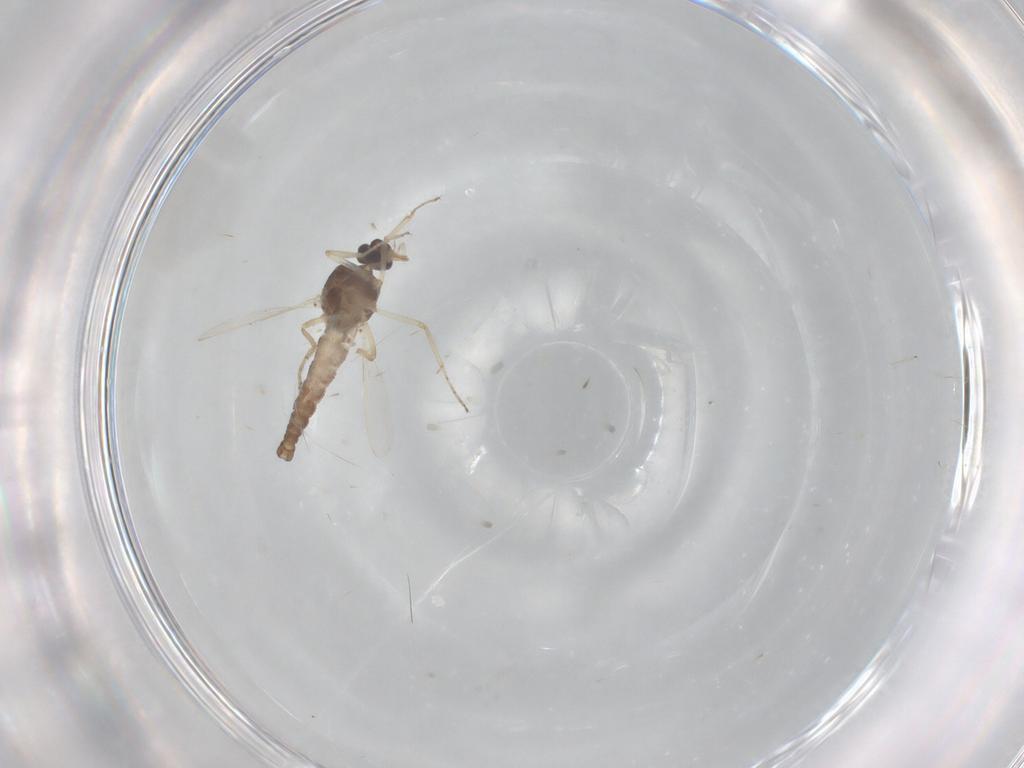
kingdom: Animalia
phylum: Arthropoda
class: Insecta
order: Diptera
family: Ceratopogonidae
